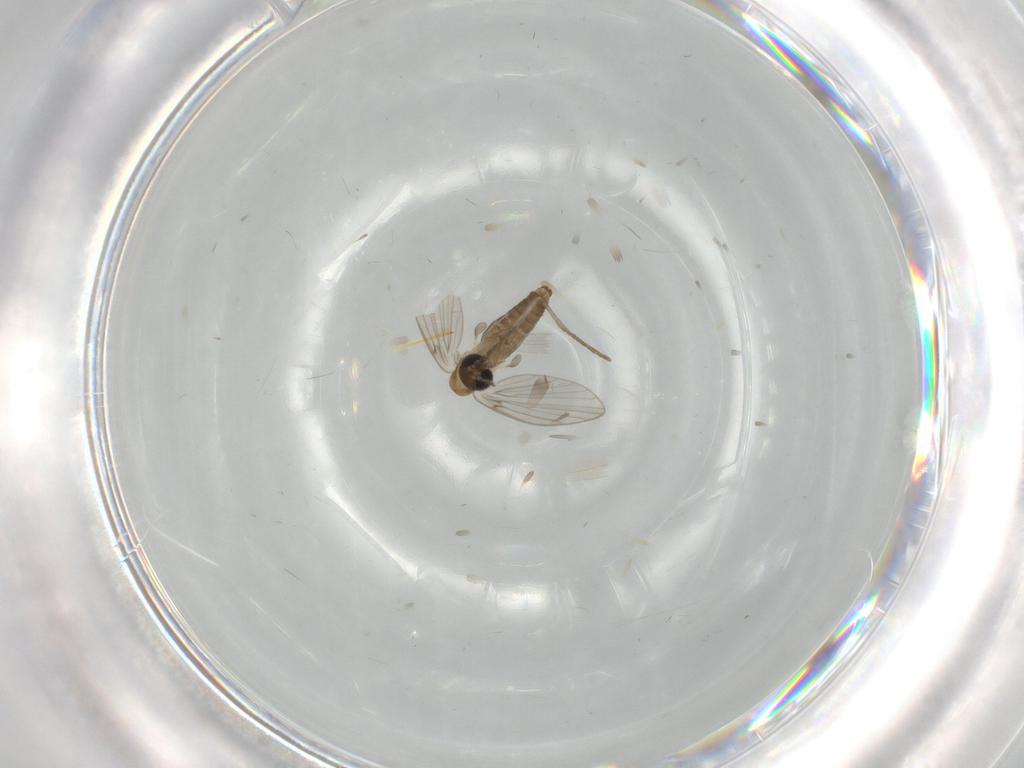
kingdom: Animalia
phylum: Arthropoda
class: Insecta
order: Diptera
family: Psychodidae
